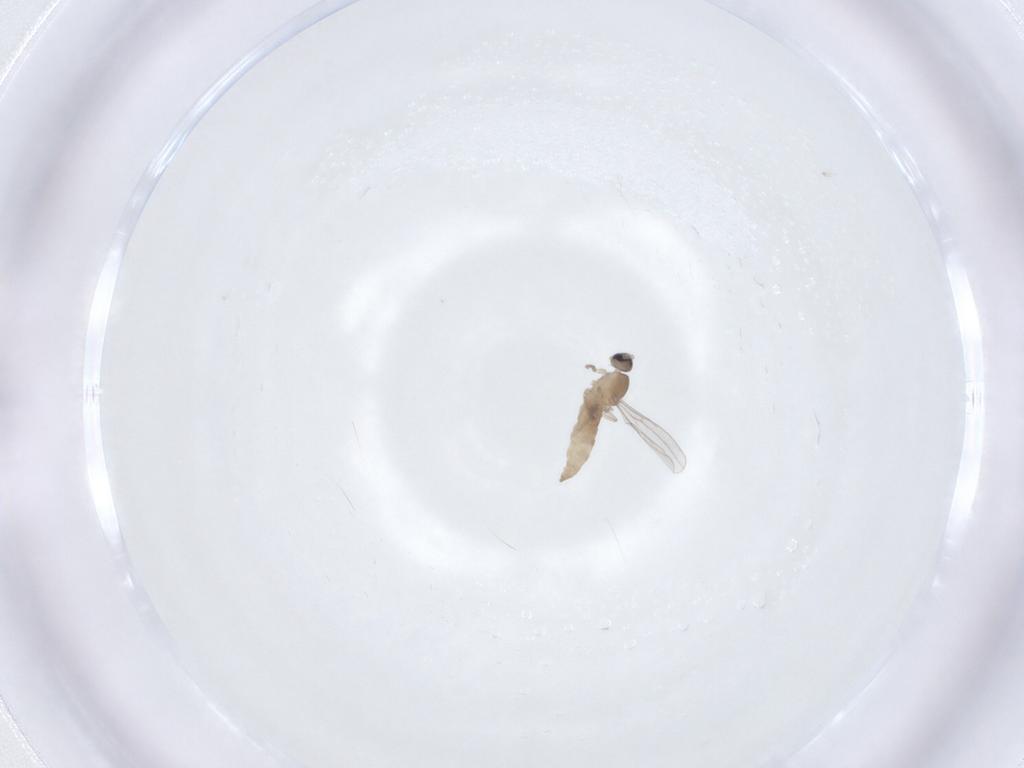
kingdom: Animalia
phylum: Arthropoda
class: Insecta
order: Diptera
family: Cecidomyiidae
